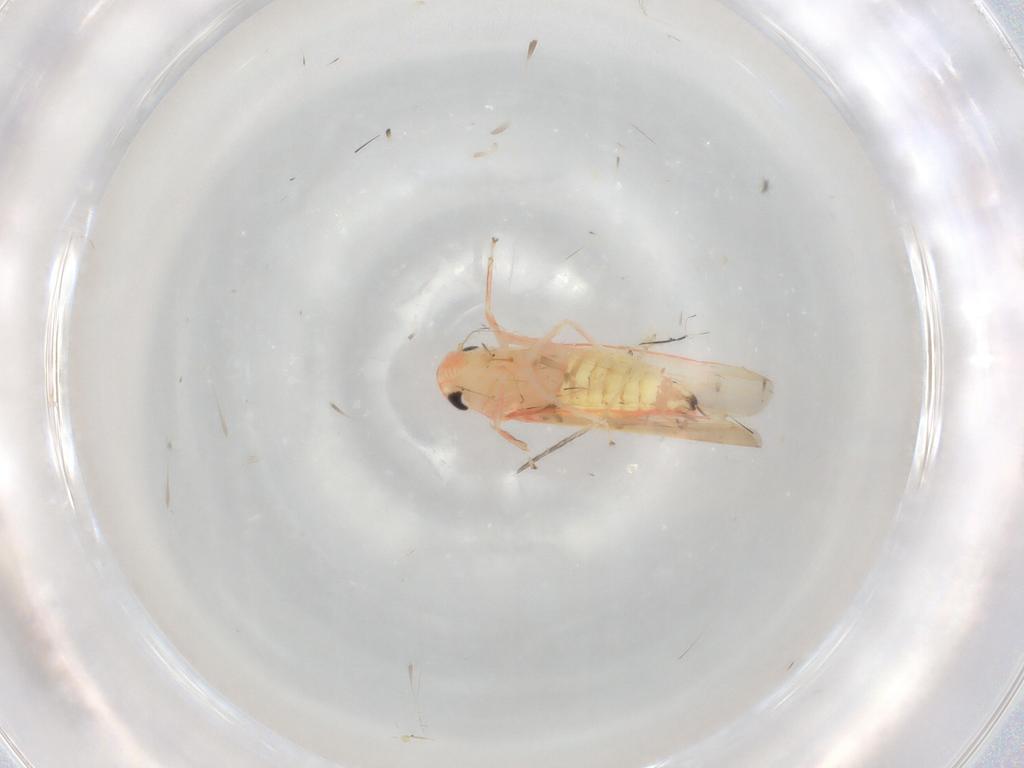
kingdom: Animalia
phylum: Arthropoda
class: Insecta
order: Hemiptera
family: Cicadellidae
